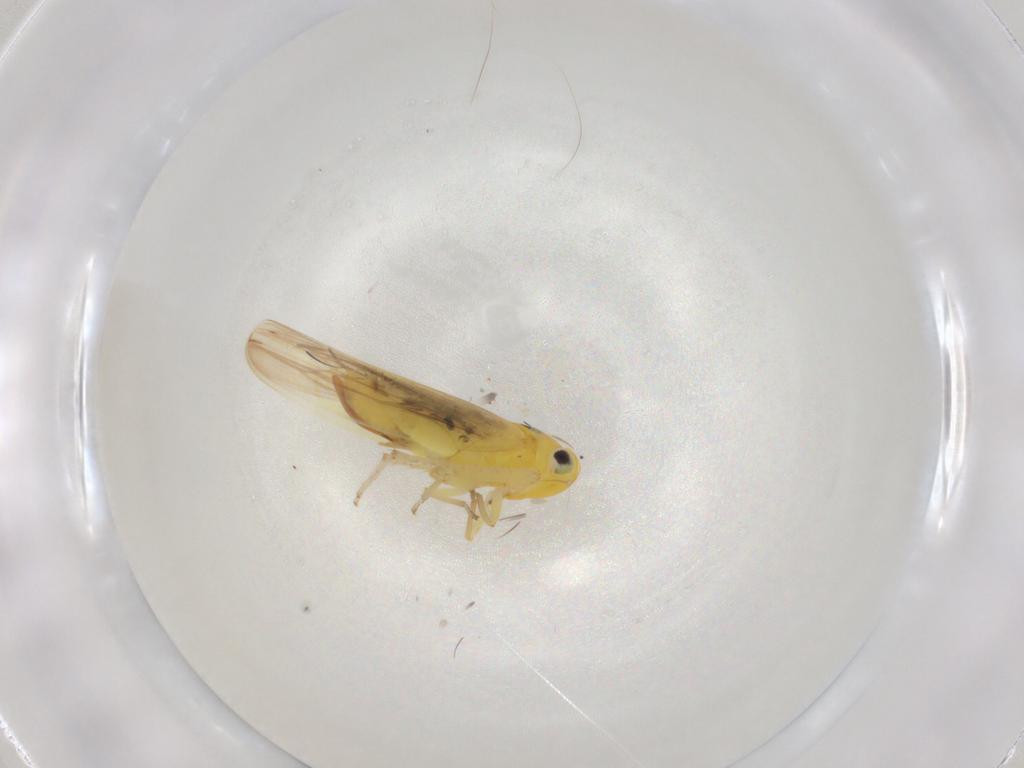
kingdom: Animalia
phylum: Arthropoda
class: Insecta
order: Hemiptera
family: Cicadellidae
